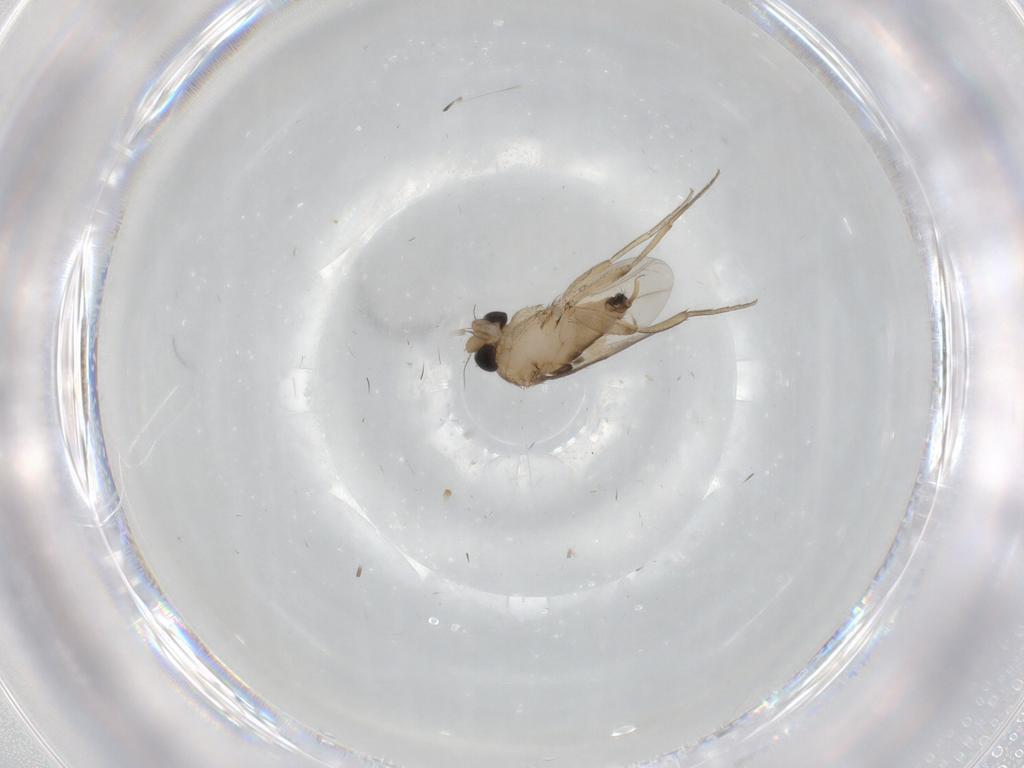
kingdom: Animalia
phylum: Arthropoda
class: Insecta
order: Diptera
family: Phoridae
